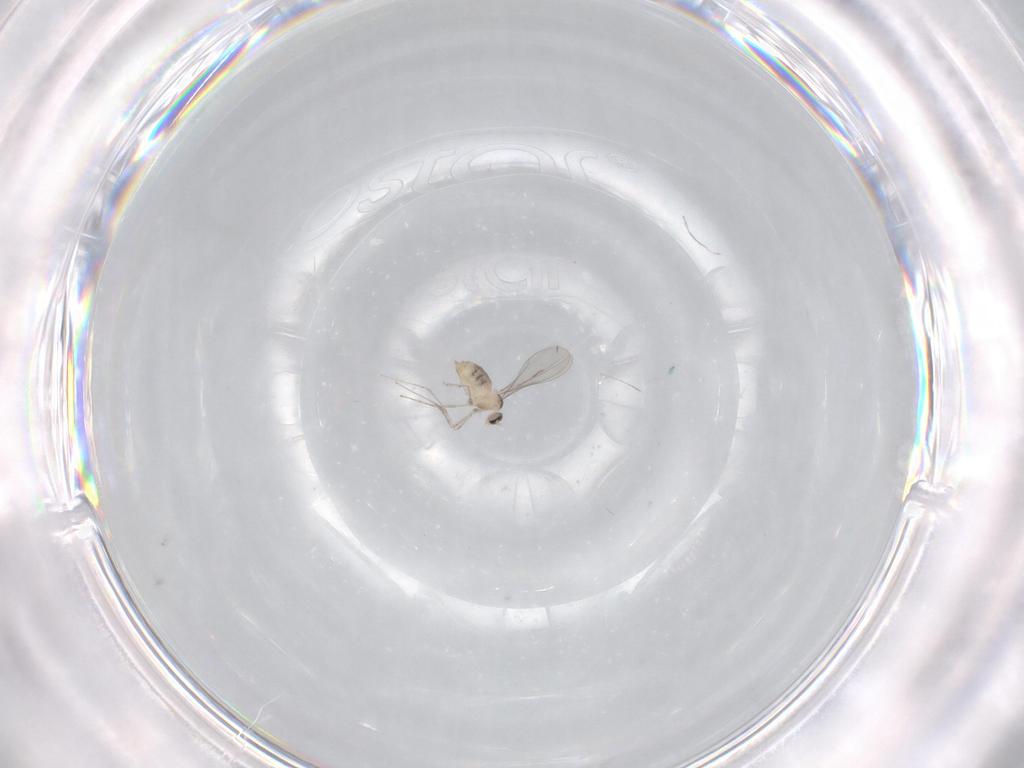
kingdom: Animalia
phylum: Arthropoda
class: Insecta
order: Diptera
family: Cecidomyiidae
